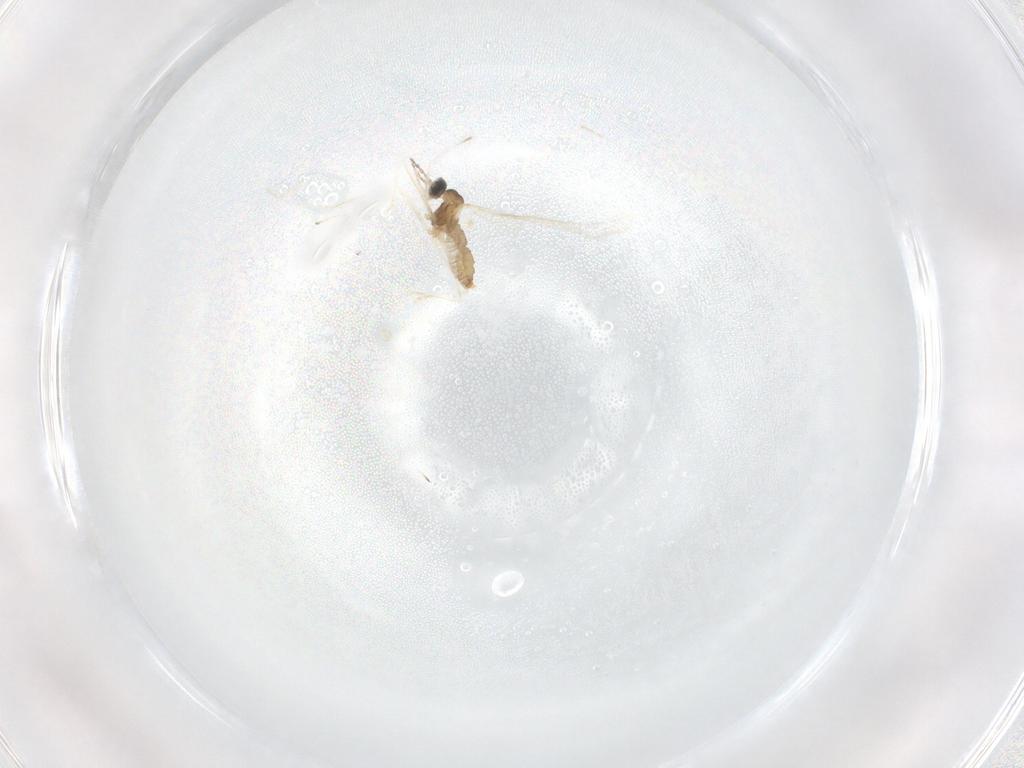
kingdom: Animalia
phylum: Arthropoda
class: Insecta
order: Diptera
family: Cecidomyiidae
